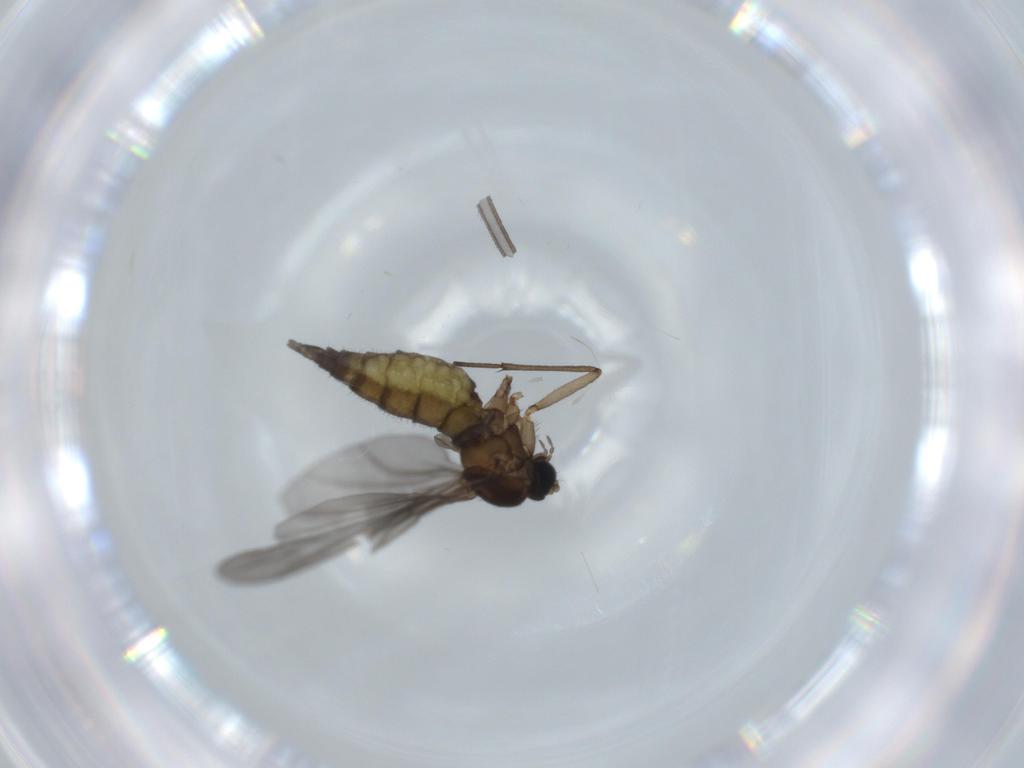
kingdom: Animalia
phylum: Arthropoda
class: Insecta
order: Diptera
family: Sciaridae
